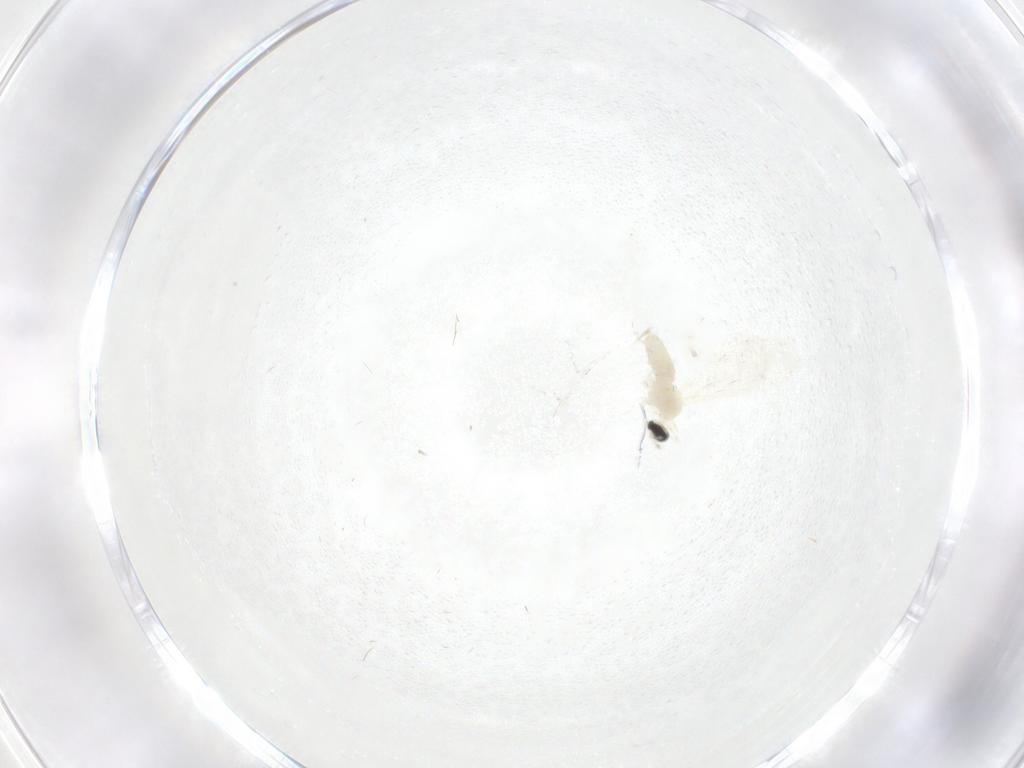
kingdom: Animalia
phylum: Arthropoda
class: Insecta
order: Diptera
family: Cecidomyiidae
